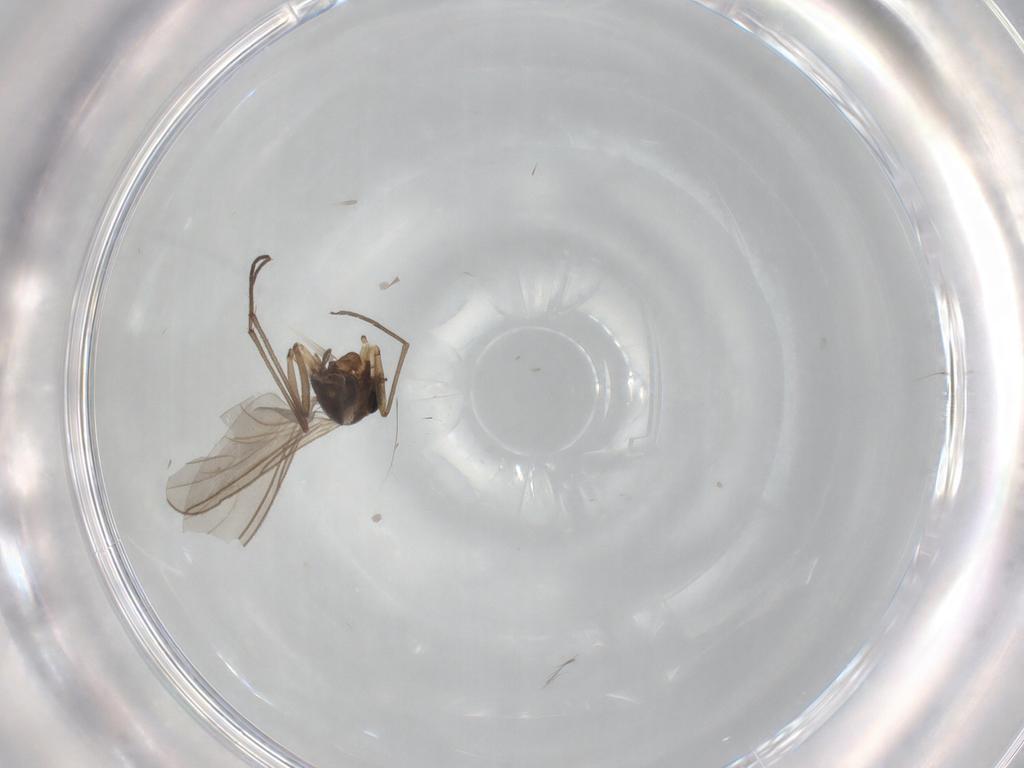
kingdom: Animalia
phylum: Arthropoda
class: Insecta
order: Diptera
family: Sciaridae
